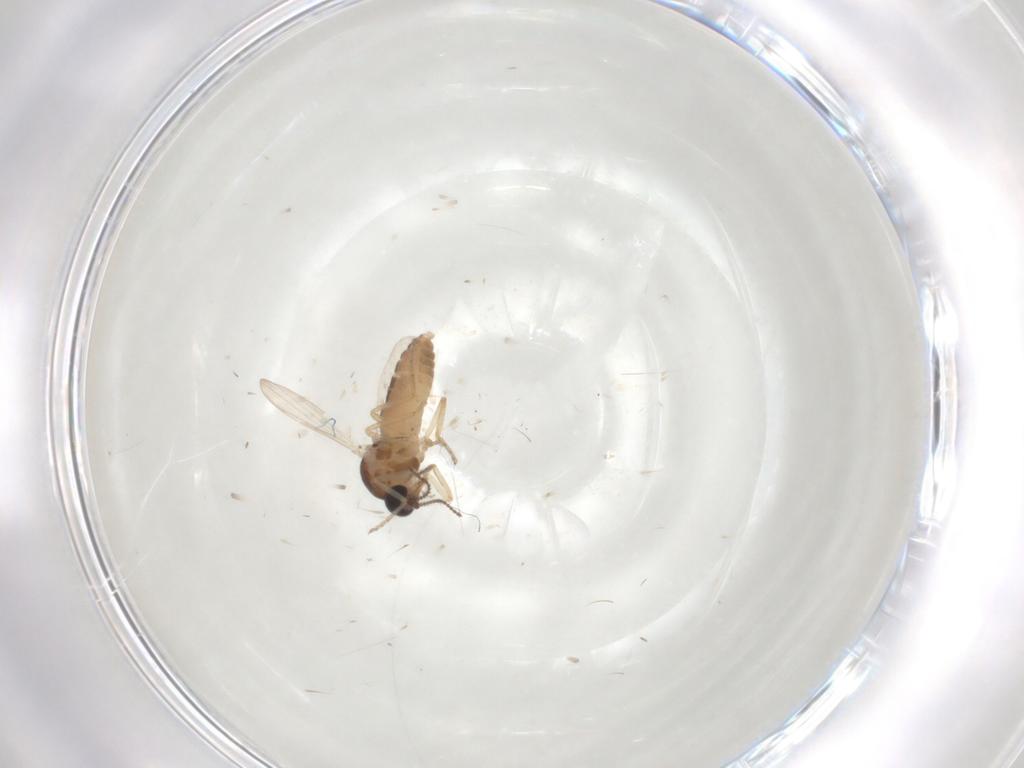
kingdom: Animalia
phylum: Arthropoda
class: Insecta
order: Diptera
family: Ceratopogonidae
